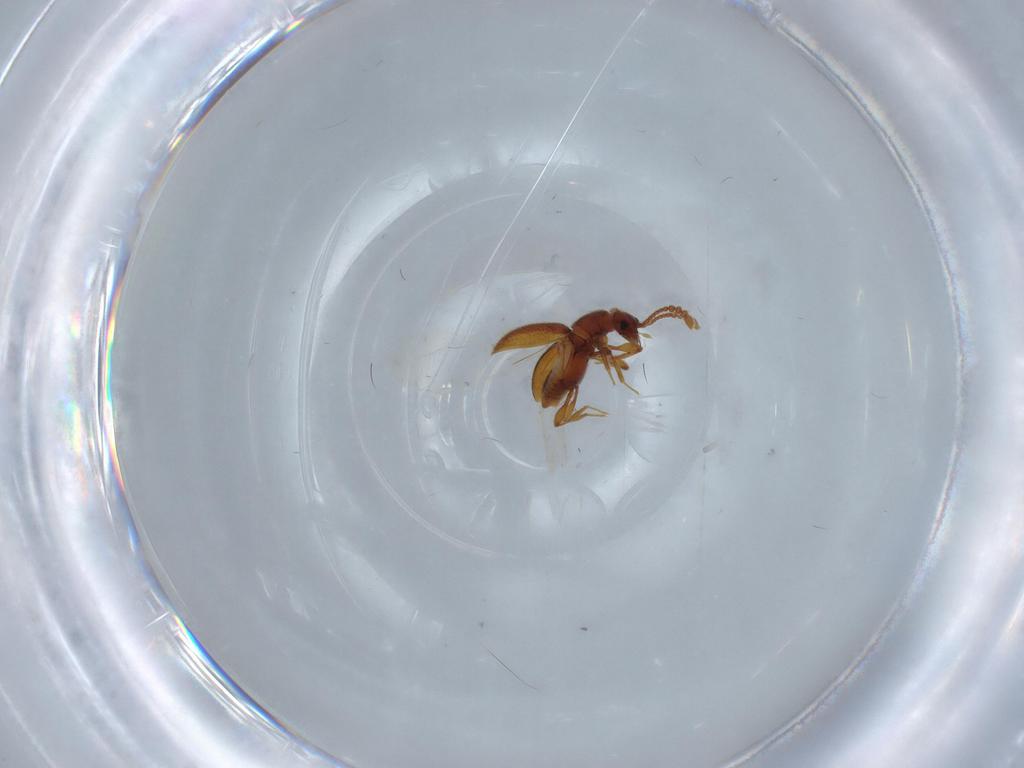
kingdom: Animalia
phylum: Arthropoda
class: Insecta
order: Coleoptera
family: Staphylinidae
